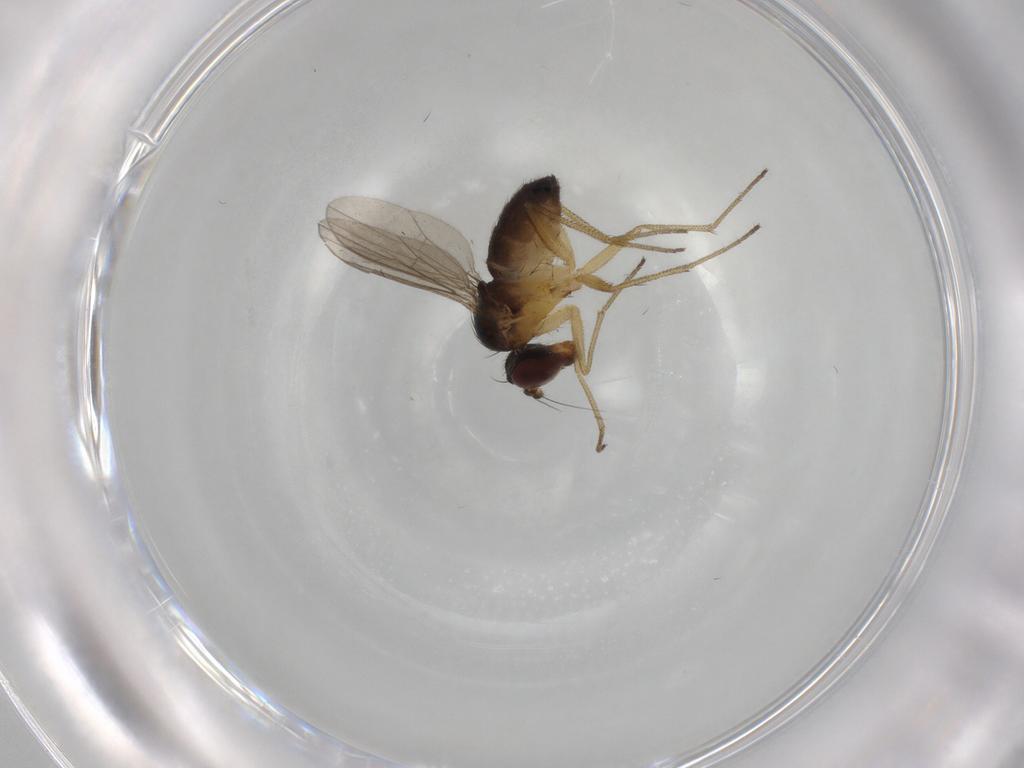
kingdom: Animalia
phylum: Arthropoda
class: Insecta
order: Diptera
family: Dolichopodidae
